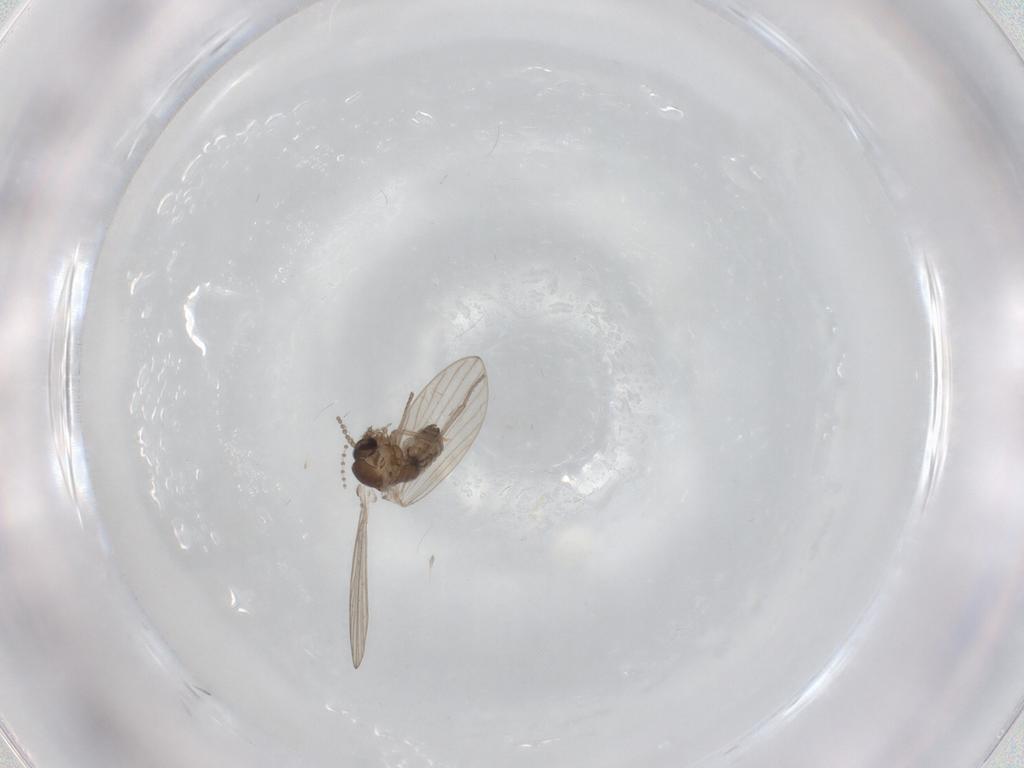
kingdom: Animalia
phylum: Arthropoda
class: Insecta
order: Diptera
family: Psychodidae
